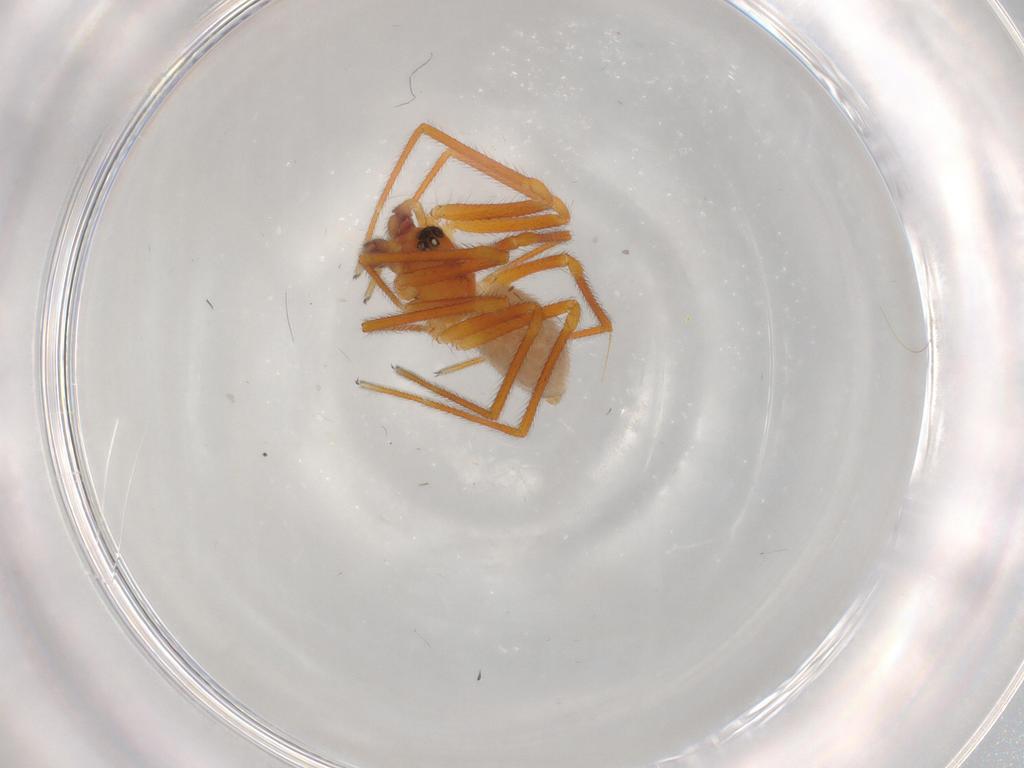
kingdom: Animalia
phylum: Arthropoda
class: Arachnida
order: Araneae
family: Linyphiidae
